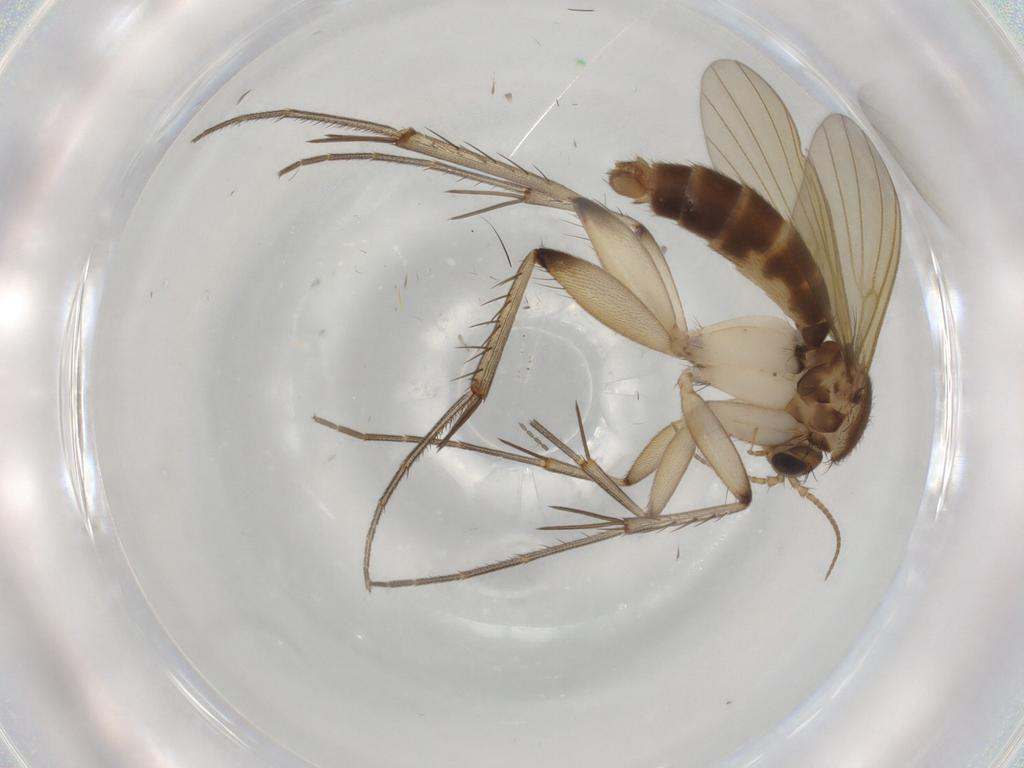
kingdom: Animalia
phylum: Arthropoda
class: Insecta
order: Diptera
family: Mycetophilidae
